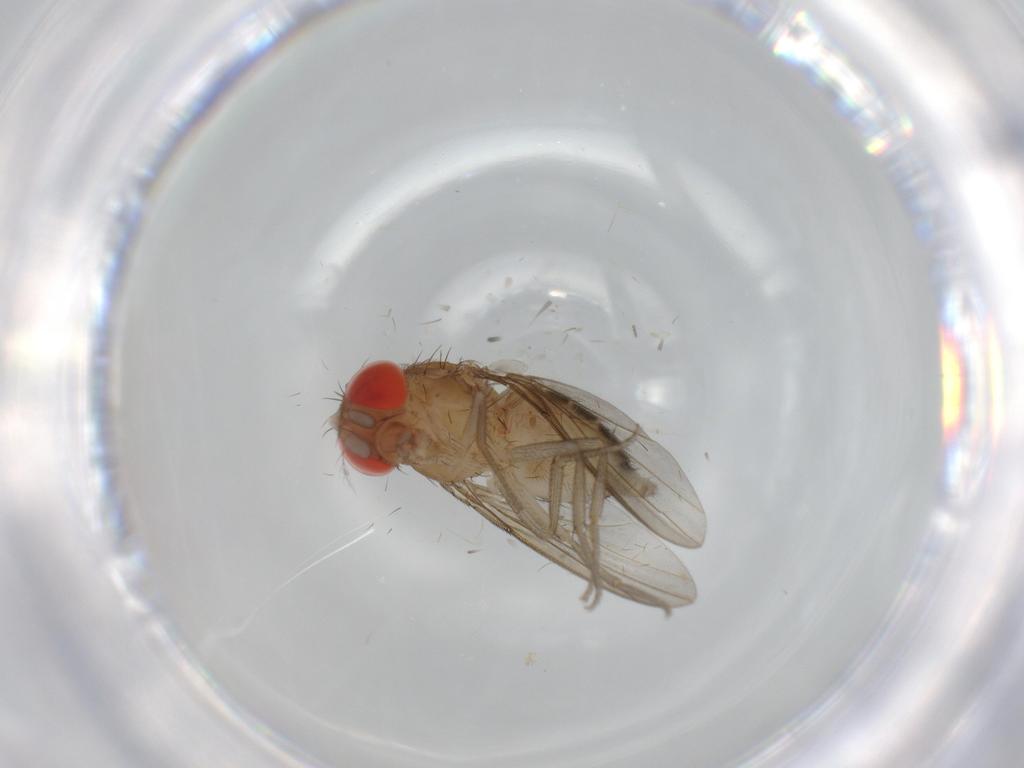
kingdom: Animalia
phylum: Arthropoda
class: Insecta
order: Diptera
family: Drosophilidae
